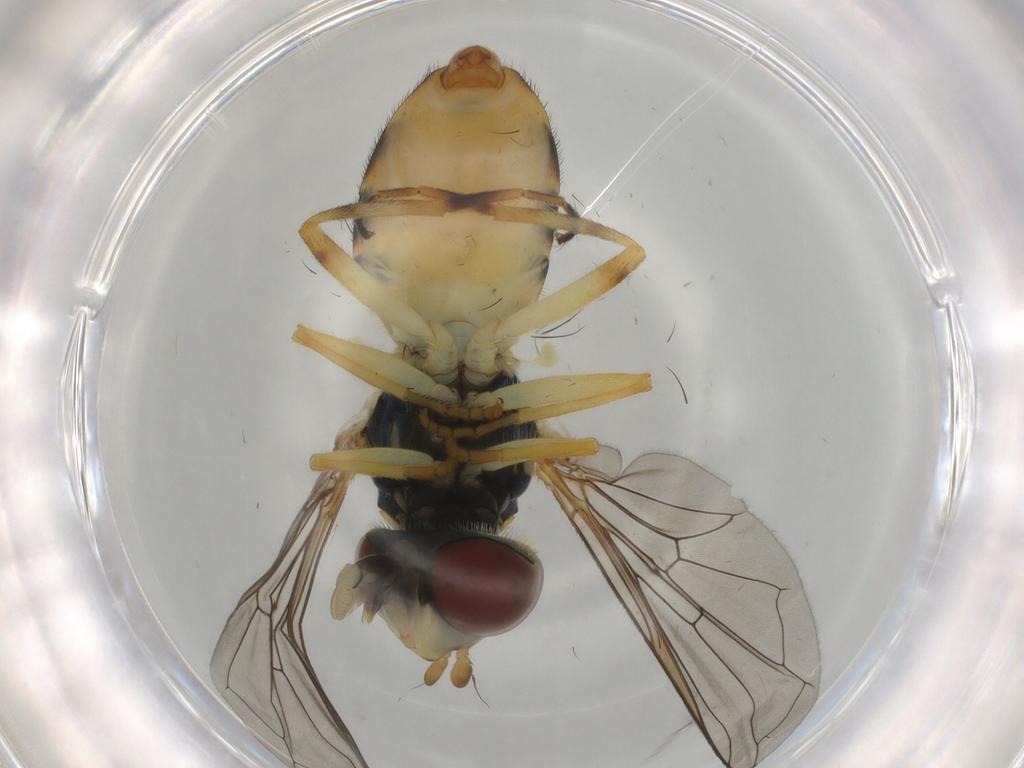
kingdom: Animalia
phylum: Arthropoda
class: Insecta
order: Diptera
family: Syrphidae
